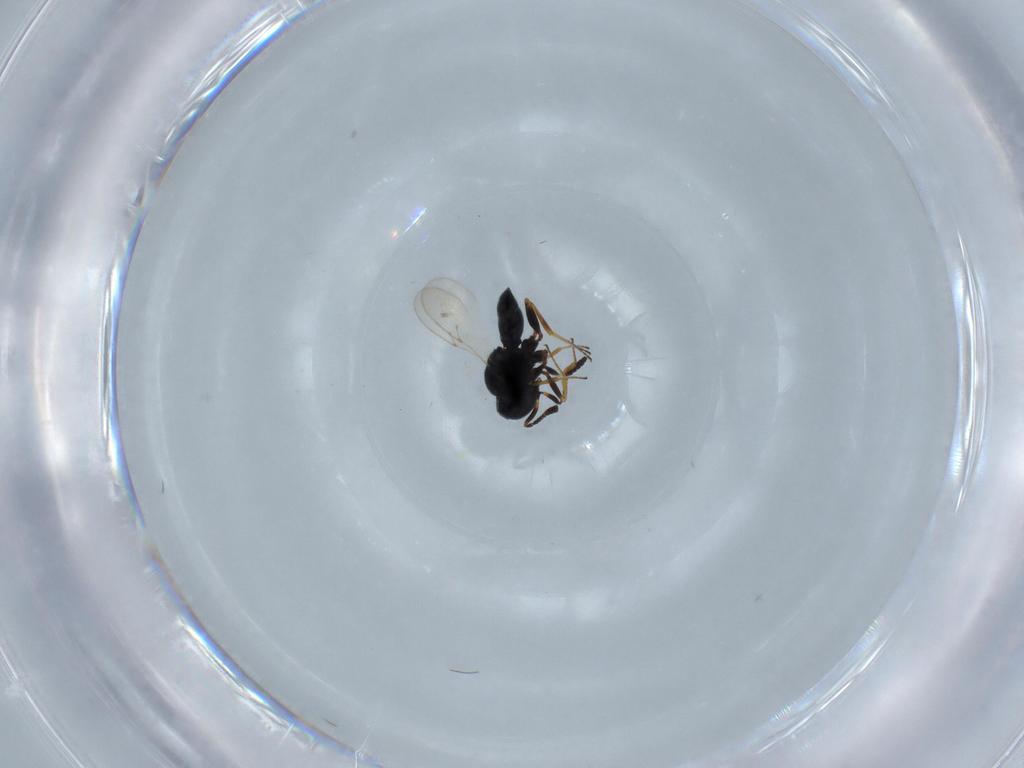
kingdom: Animalia
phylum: Arthropoda
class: Insecta
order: Hymenoptera
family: Scelionidae
